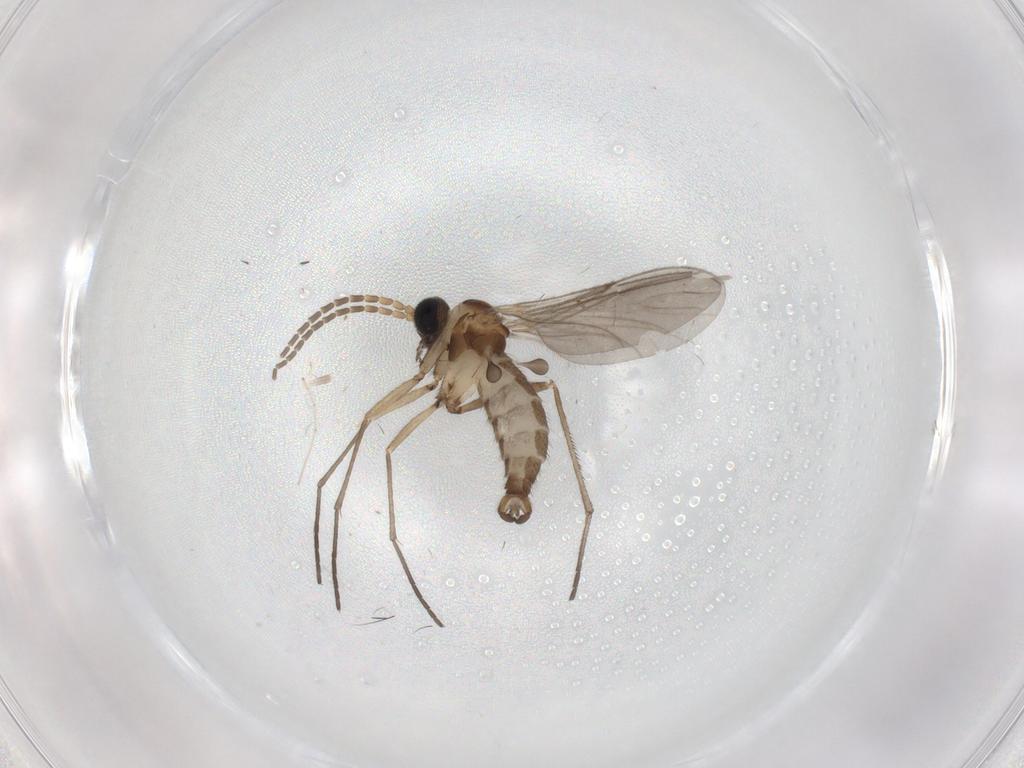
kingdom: Animalia
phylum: Arthropoda
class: Insecta
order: Diptera
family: Sciaridae
